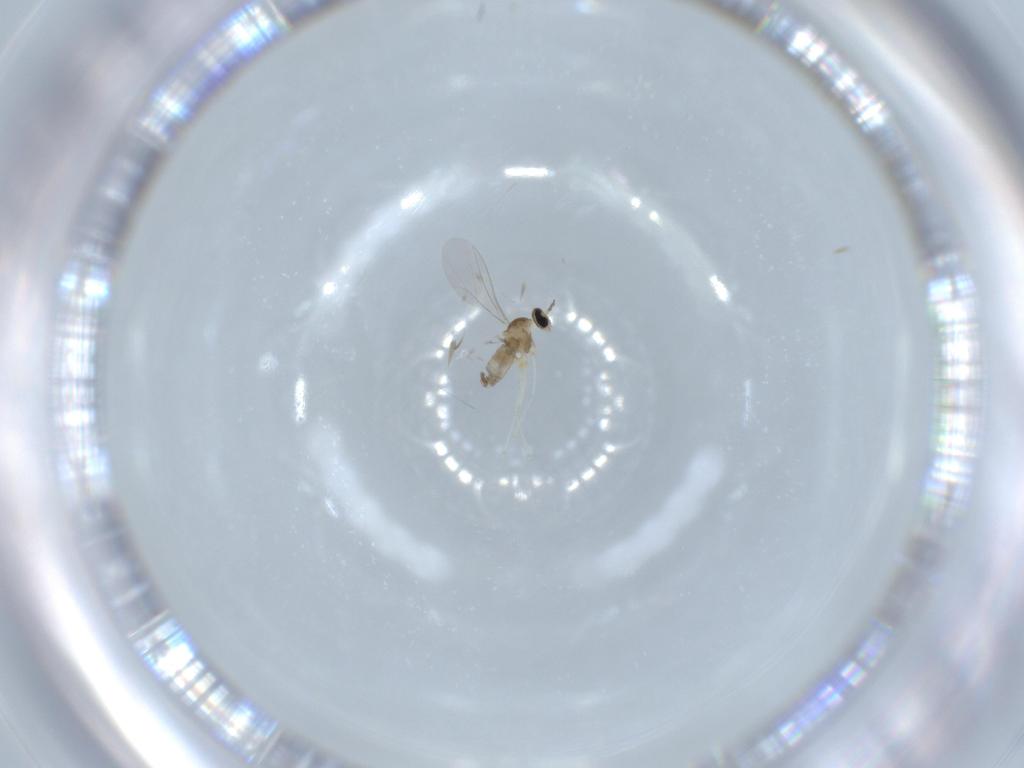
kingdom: Animalia
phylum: Arthropoda
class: Insecta
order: Diptera
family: Cecidomyiidae
